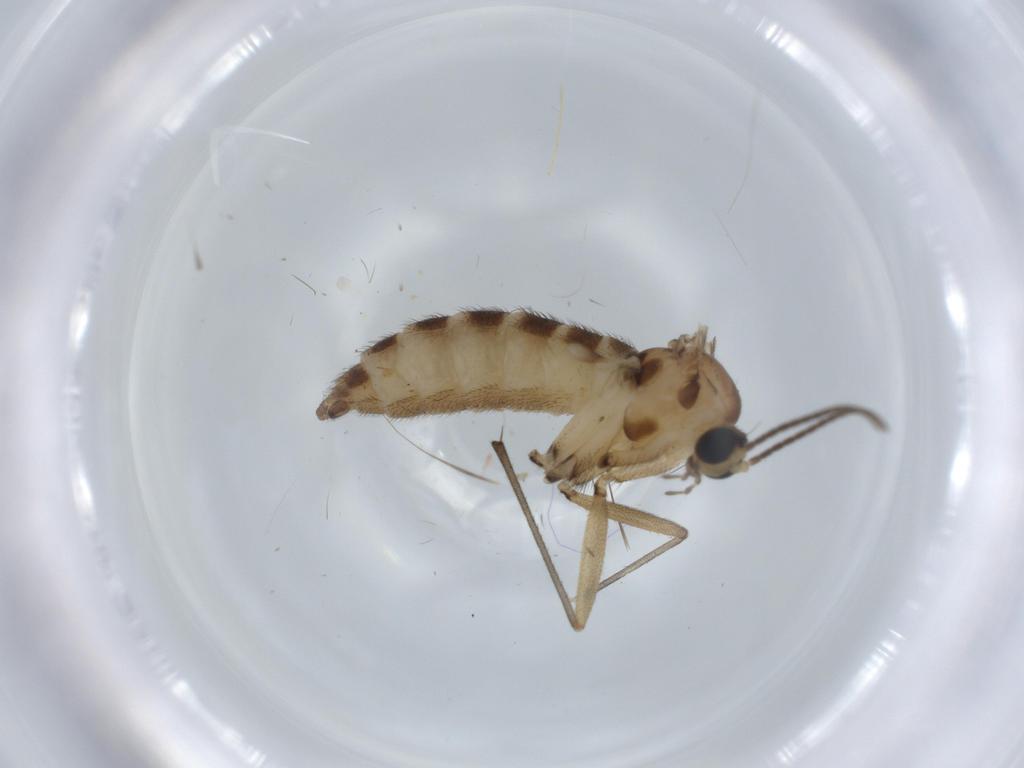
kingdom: Animalia
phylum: Arthropoda
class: Insecta
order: Diptera
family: Sciaridae
